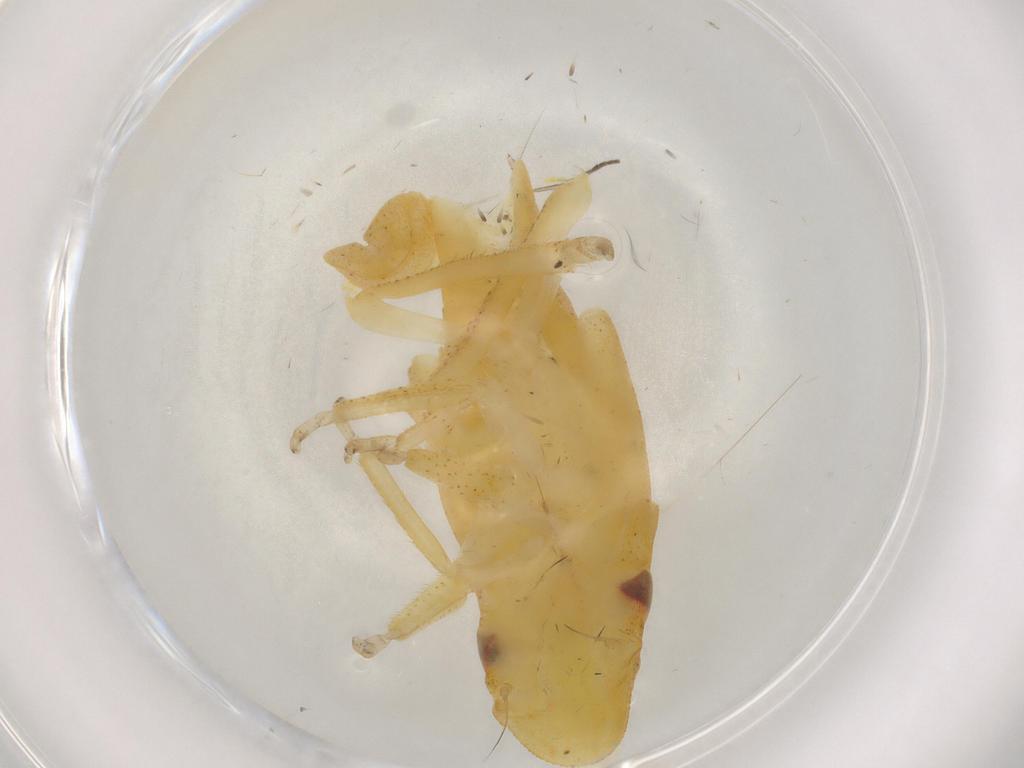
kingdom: Animalia
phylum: Arthropoda
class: Insecta
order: Hemiptera
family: Cicadellidae
